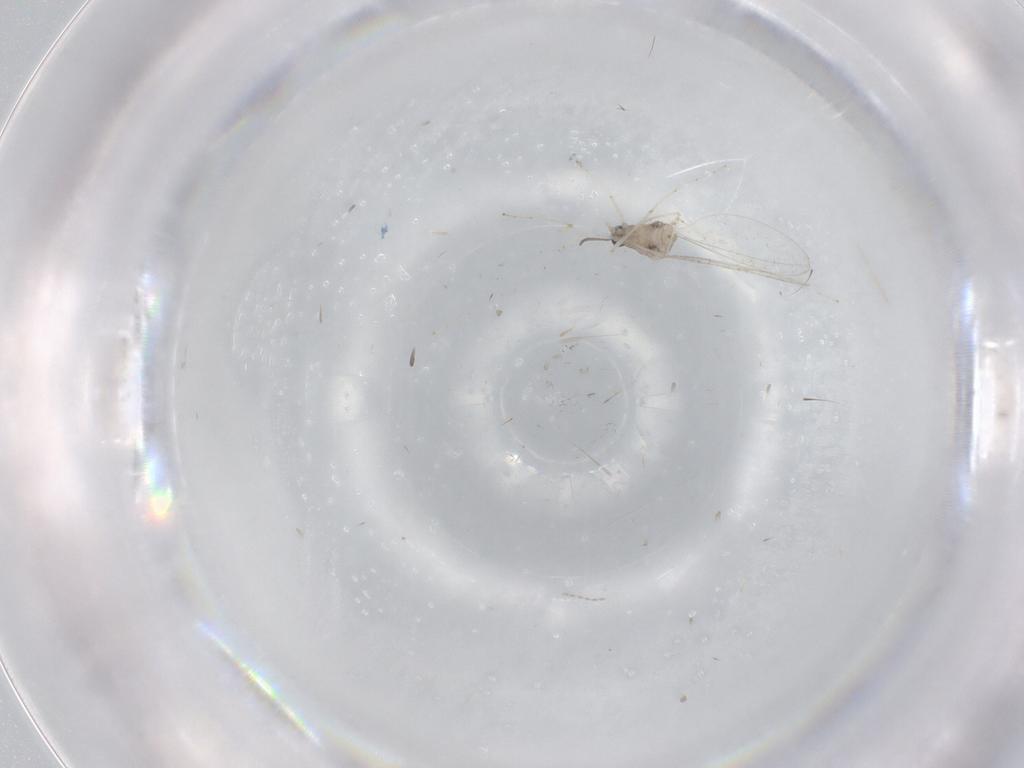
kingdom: Animalia
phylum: Arthropoda
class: Insecta
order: Diptera
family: Cecidomyiidae
